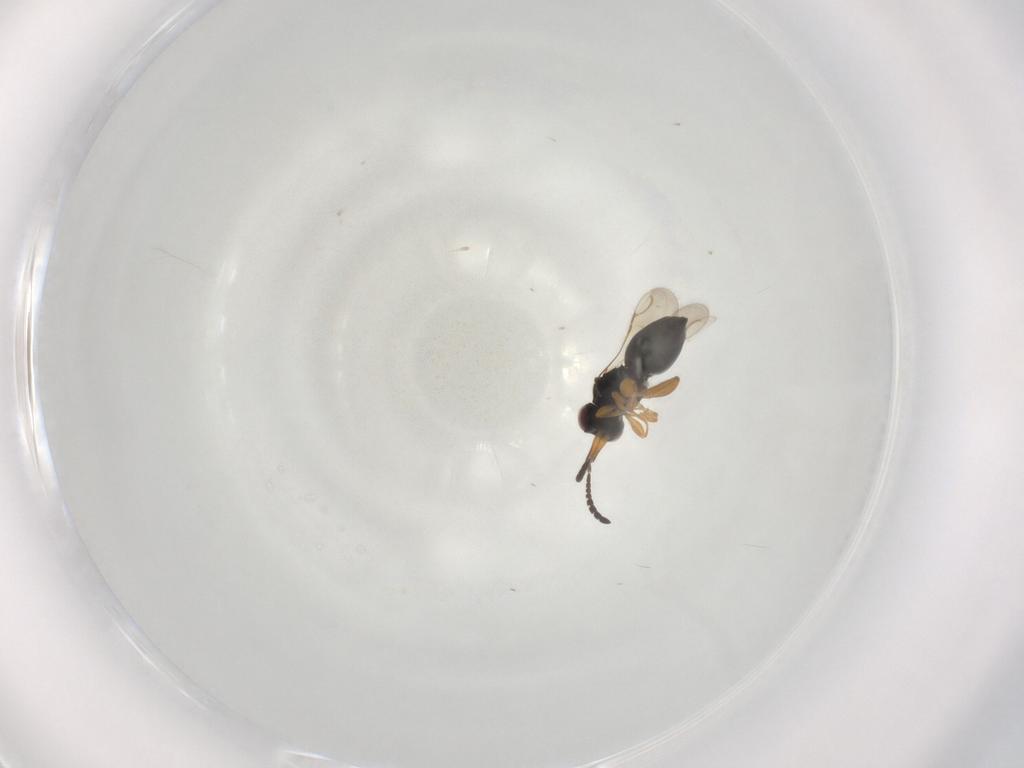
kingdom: Animalia
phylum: Arthropoda
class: Insecta
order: Hymenoptera
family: Ceraphronidae
